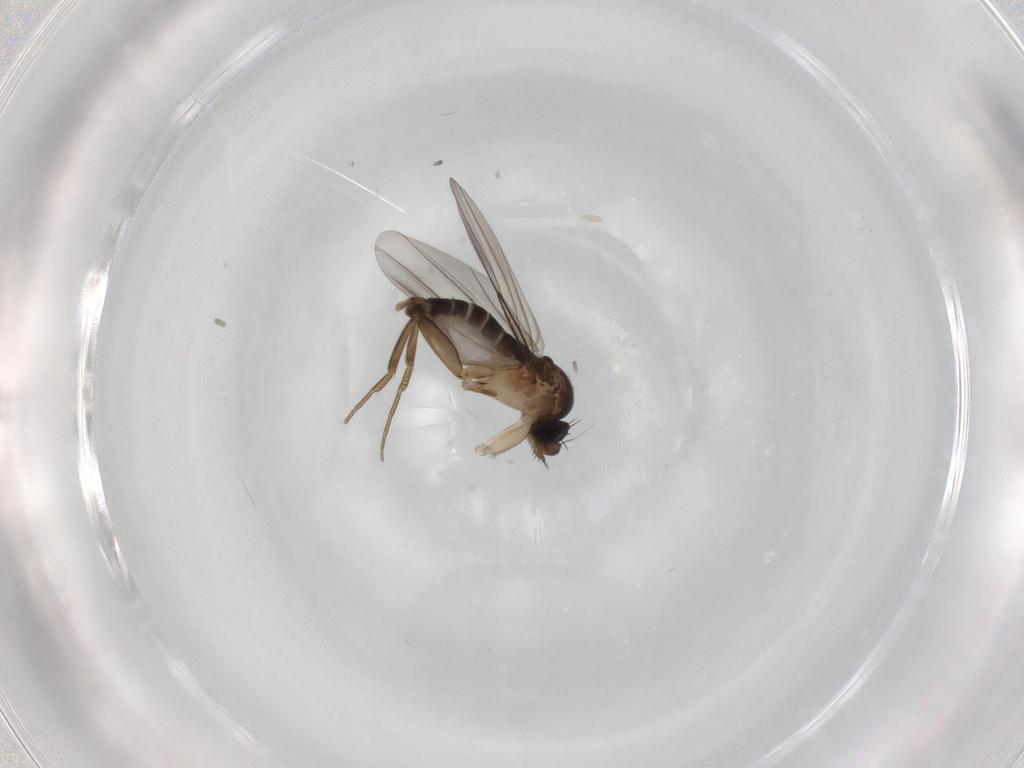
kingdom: Animalia
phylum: Arthropoda
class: Insecta
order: Diptera
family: Phoridae
